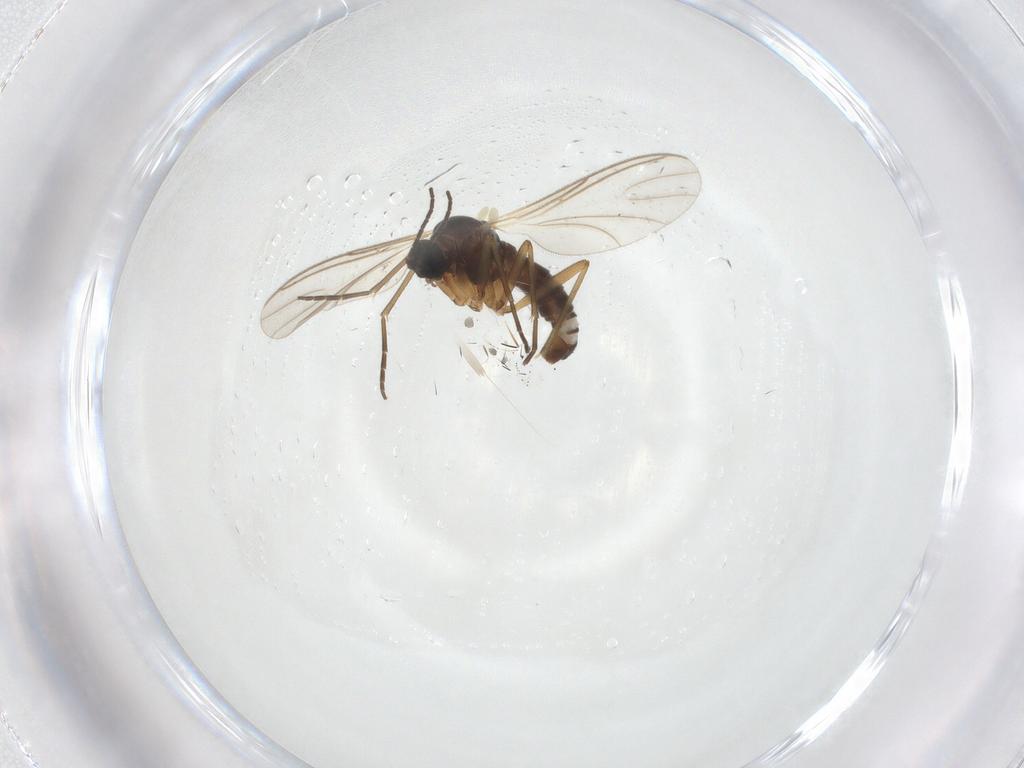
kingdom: Animalia
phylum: Arthropoda
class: Insecta
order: Diptera
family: Sciaridae
